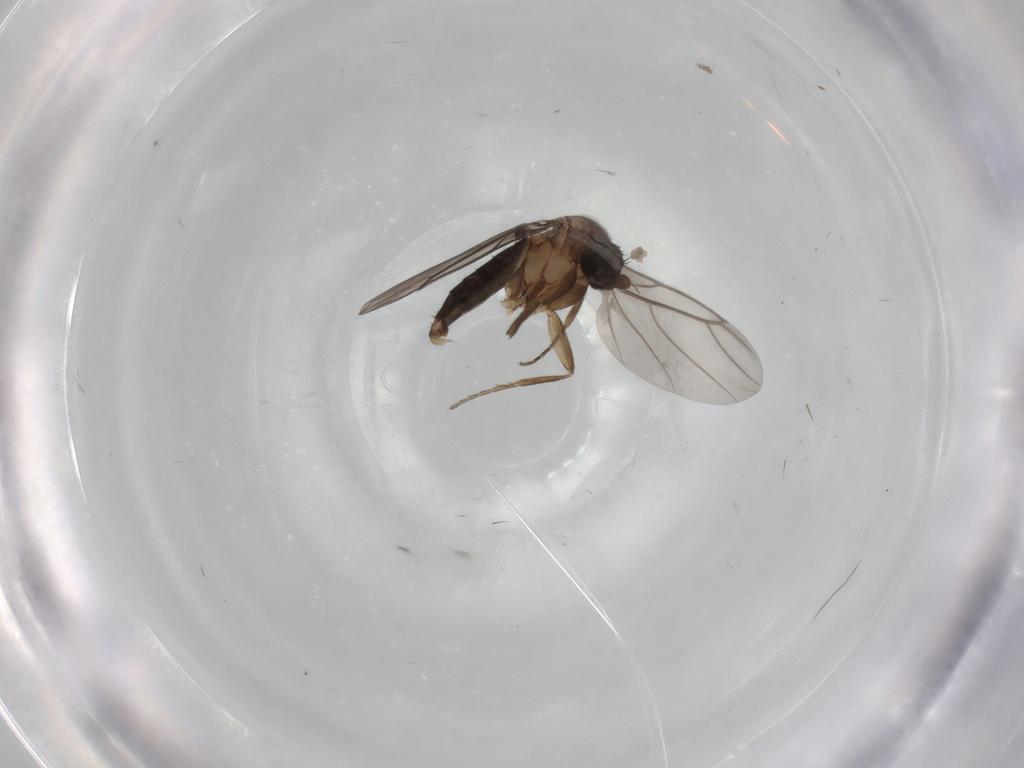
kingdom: Animalia
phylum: Arthropoda
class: Insecta
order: Diptera
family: Phoridae
